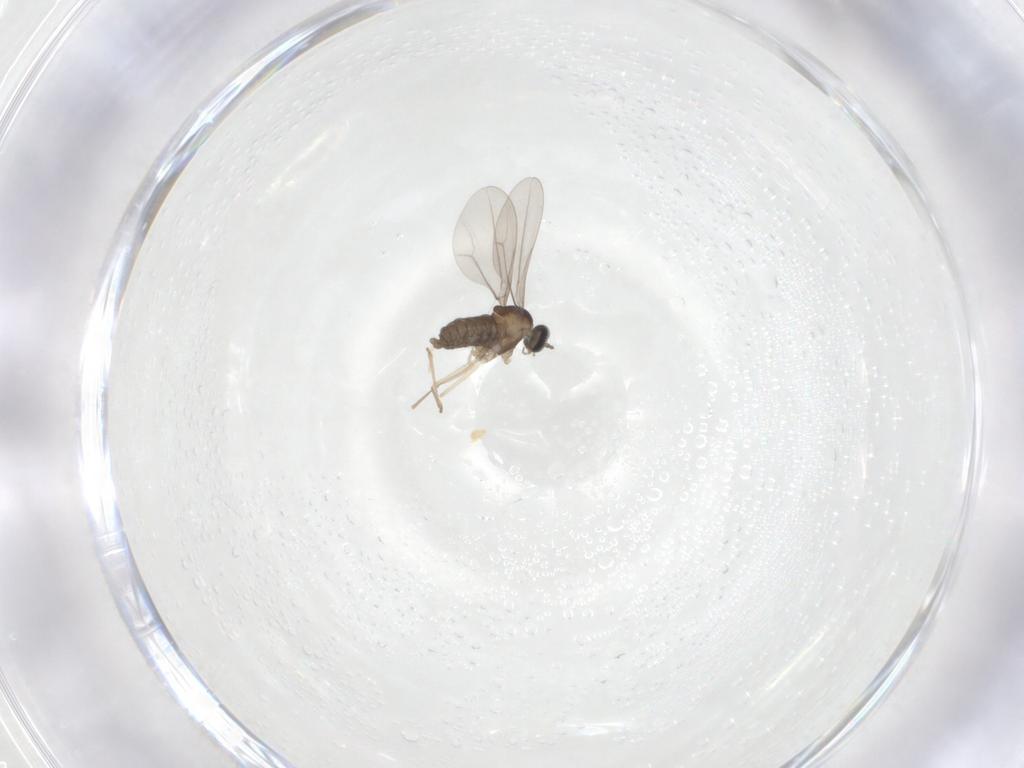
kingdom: Animalia
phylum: Arthropoda
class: Insecta
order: Diptera
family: Cecidomyiidae
